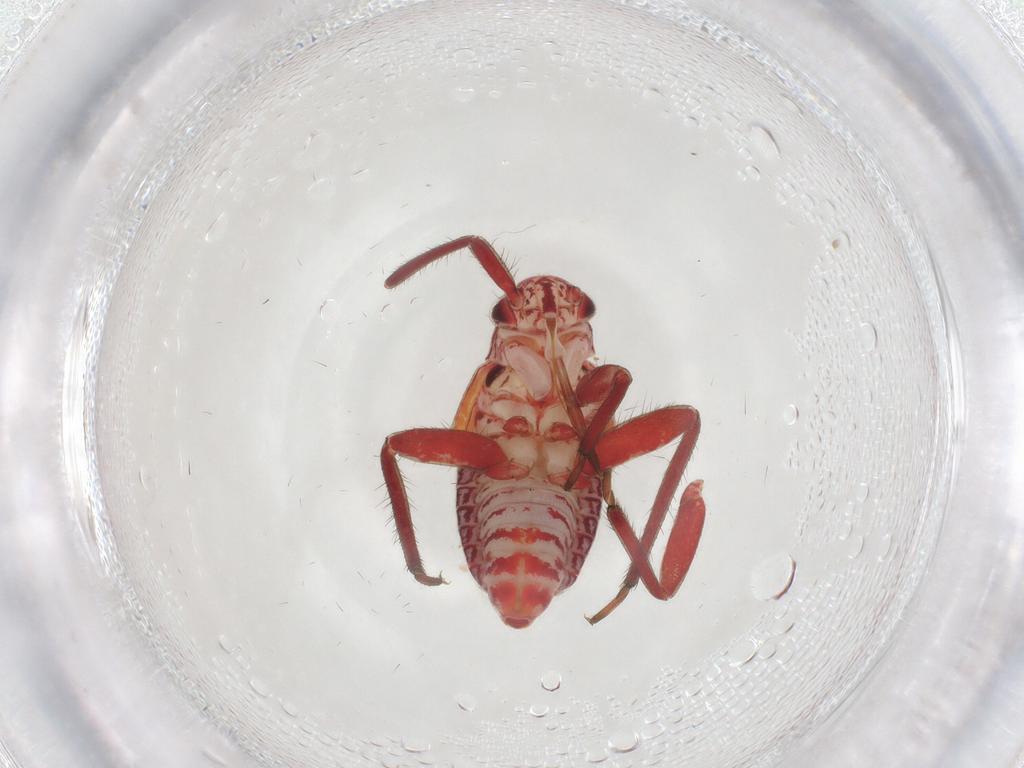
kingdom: Animalia
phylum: Arthropoda
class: Insecta
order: Hemiptera
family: Miridae
